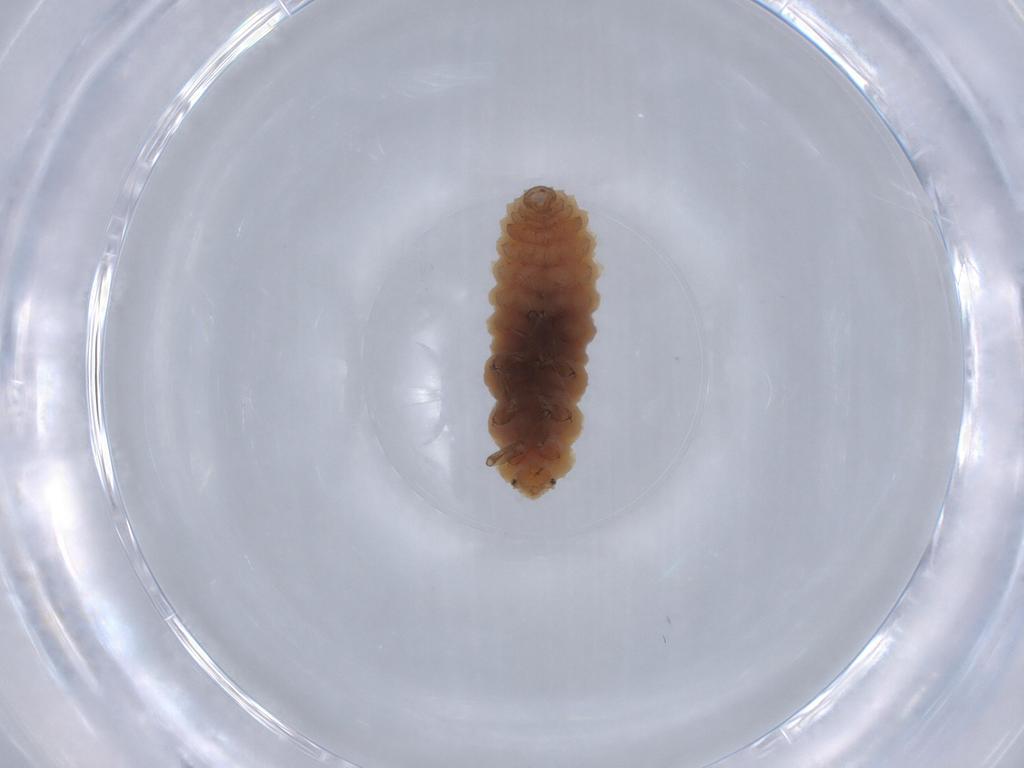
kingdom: Animalia
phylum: Arthropoda
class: Insecta
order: Coleoptera
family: Coccinellidae
